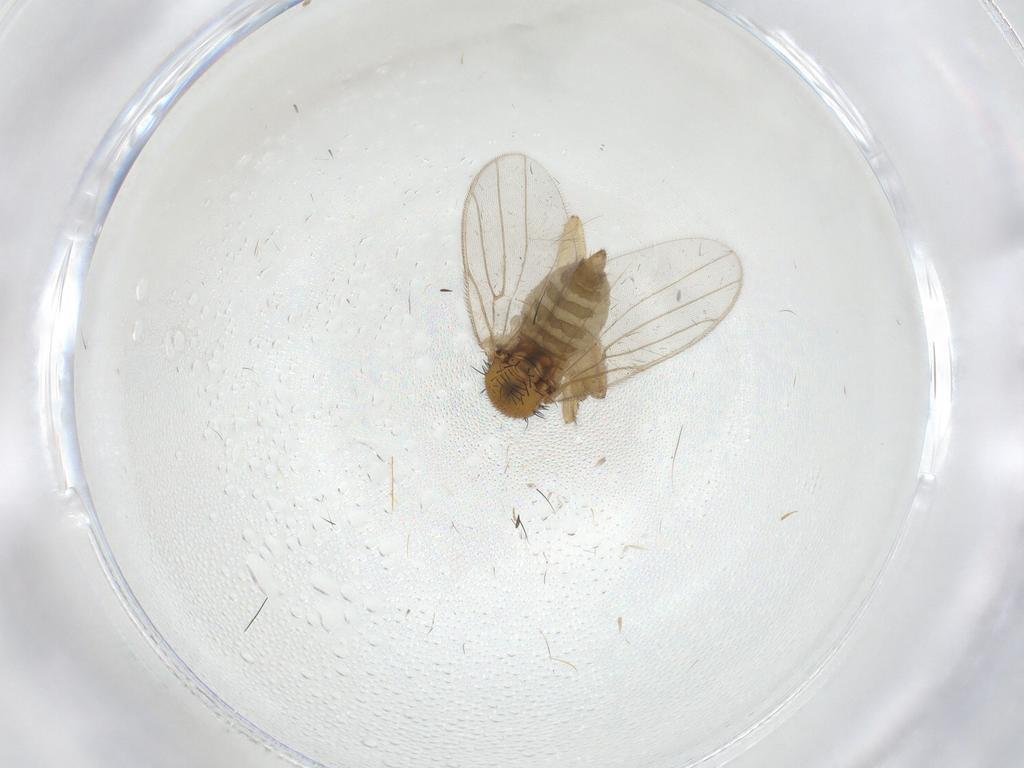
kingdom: Animalia
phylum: Arthropoda
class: Insecta
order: Diptera
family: Hybotidae
